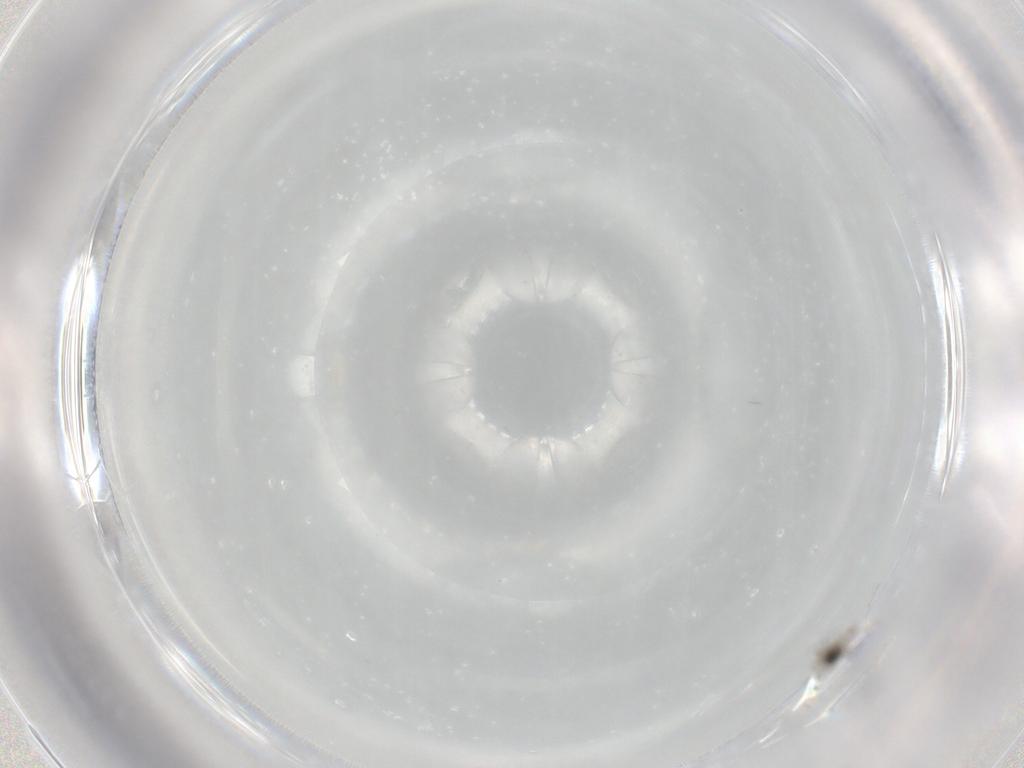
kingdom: Animalia
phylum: Arthropoda
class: Insecta
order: Diptera
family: Cecidomyiidae
